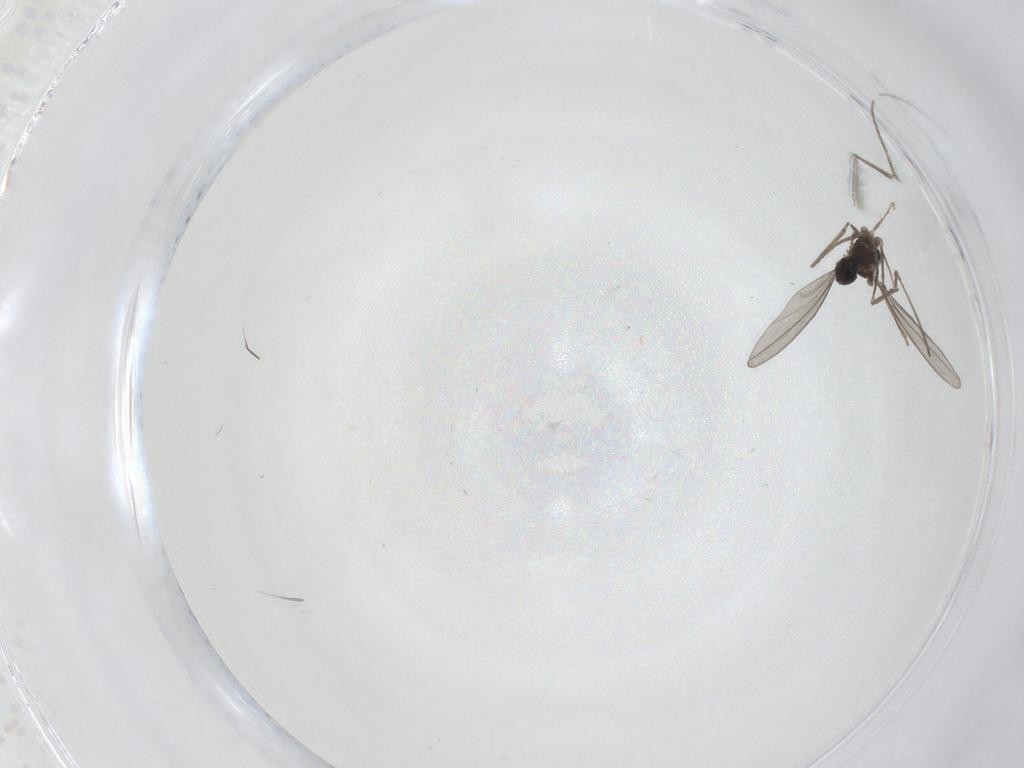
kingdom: Animalia
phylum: Arthropoda
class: Insecta
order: Diptera
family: Cecidomyiidae
